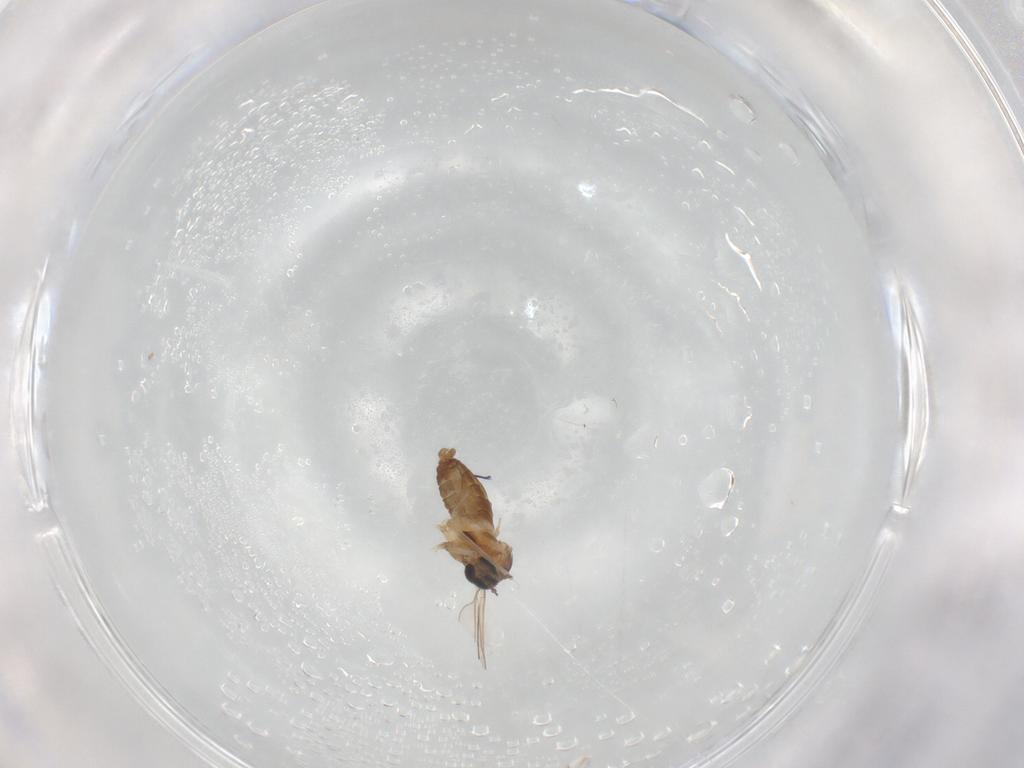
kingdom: Animalia
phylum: Arthropoda
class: Insecta
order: Diptera
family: Cecidomyiidae
